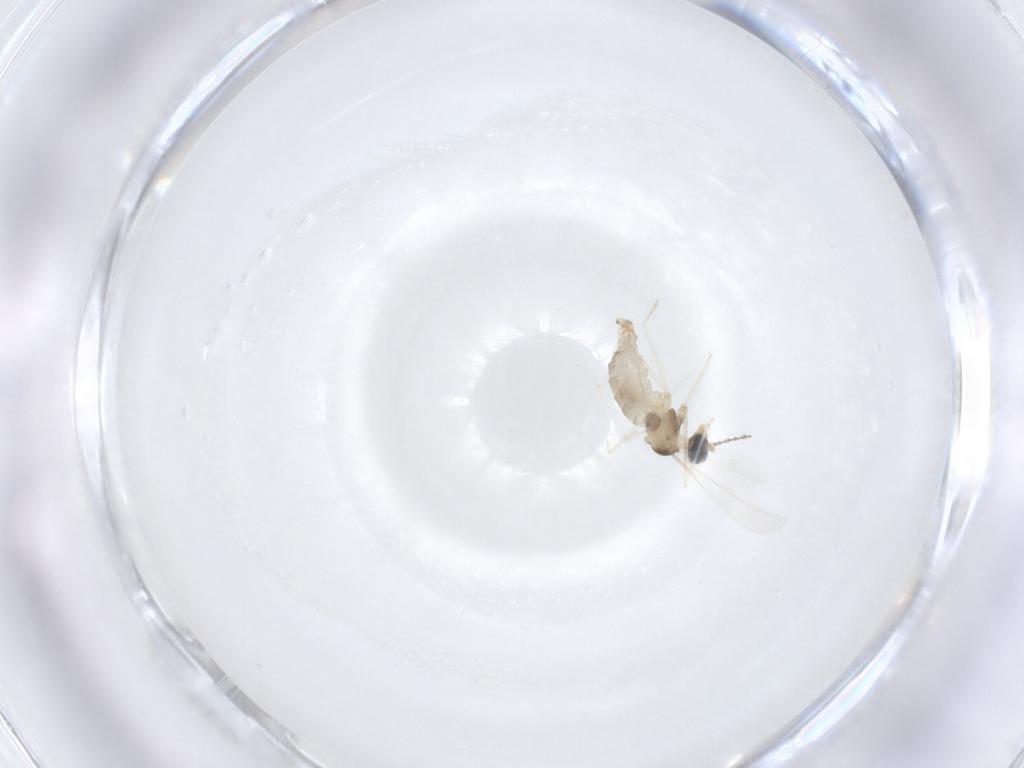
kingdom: Animalia
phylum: Arthropoda
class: Insecta
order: Diptera
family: Cecidomyiidae
